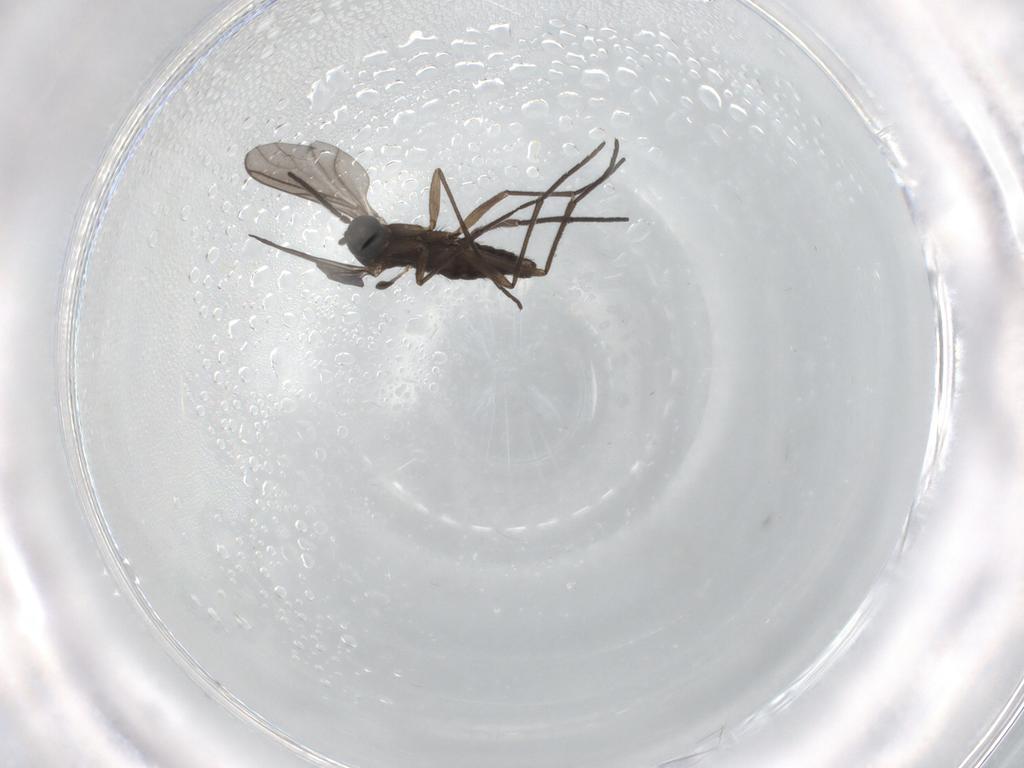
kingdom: Animalia
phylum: Arthropoda
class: Insecta
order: Diptera
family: Sciaridae
